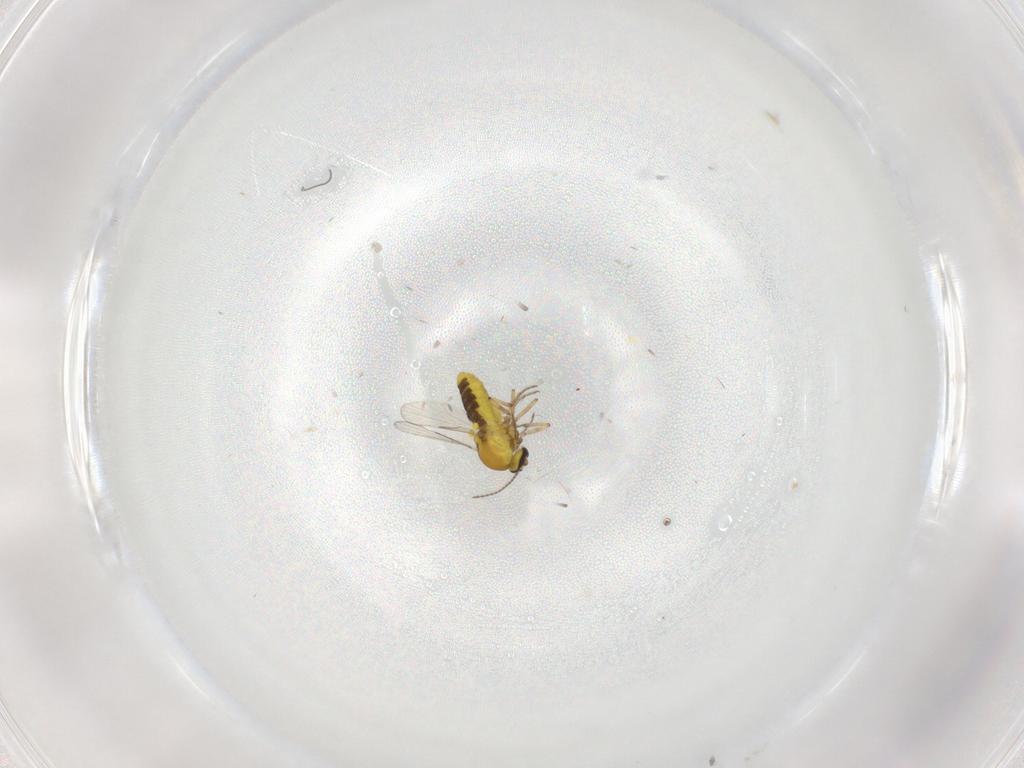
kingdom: Animalia
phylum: Arthropoda
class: Insecta
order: Diptera
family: Ceratopogonidae
